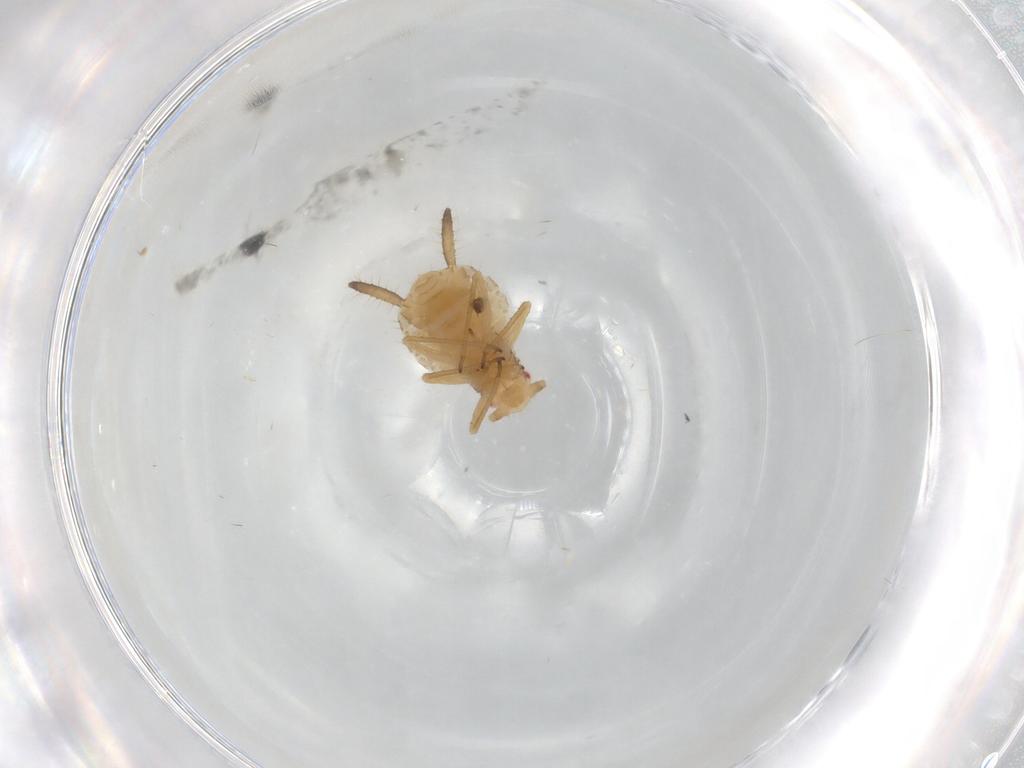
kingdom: Animalia
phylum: Arthropoda
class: Insecta
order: Hemiptera
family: Aphididae
